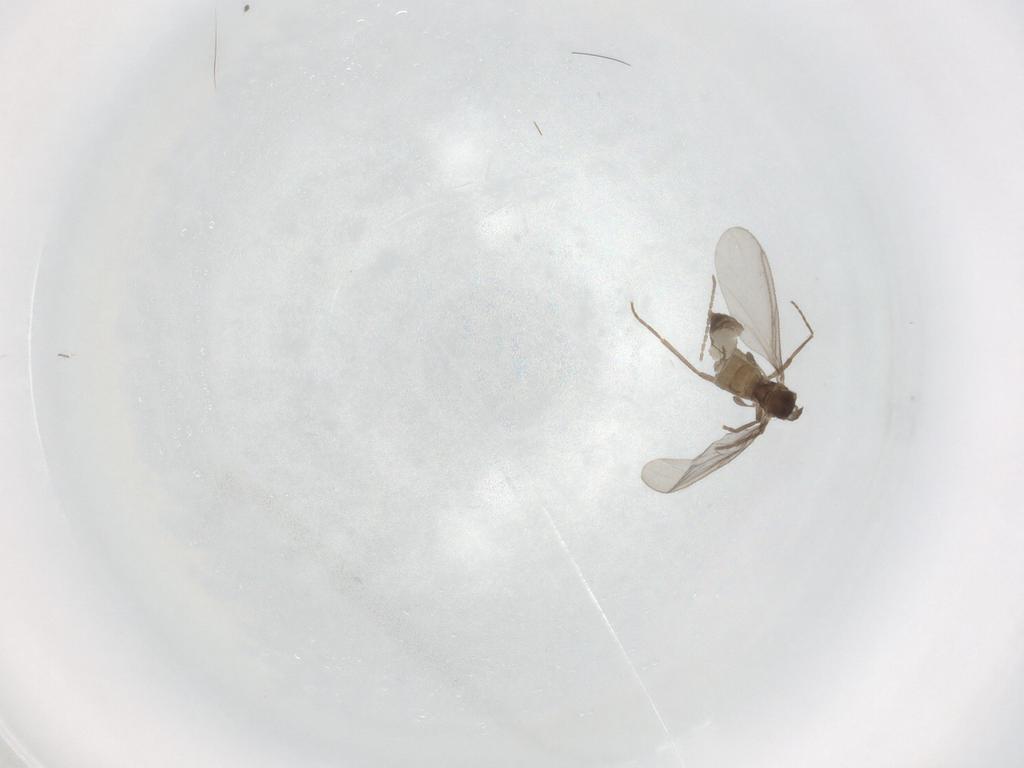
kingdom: Animalia
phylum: Arthropoda
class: Insecta
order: Diptera
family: Cecidomyiidae
